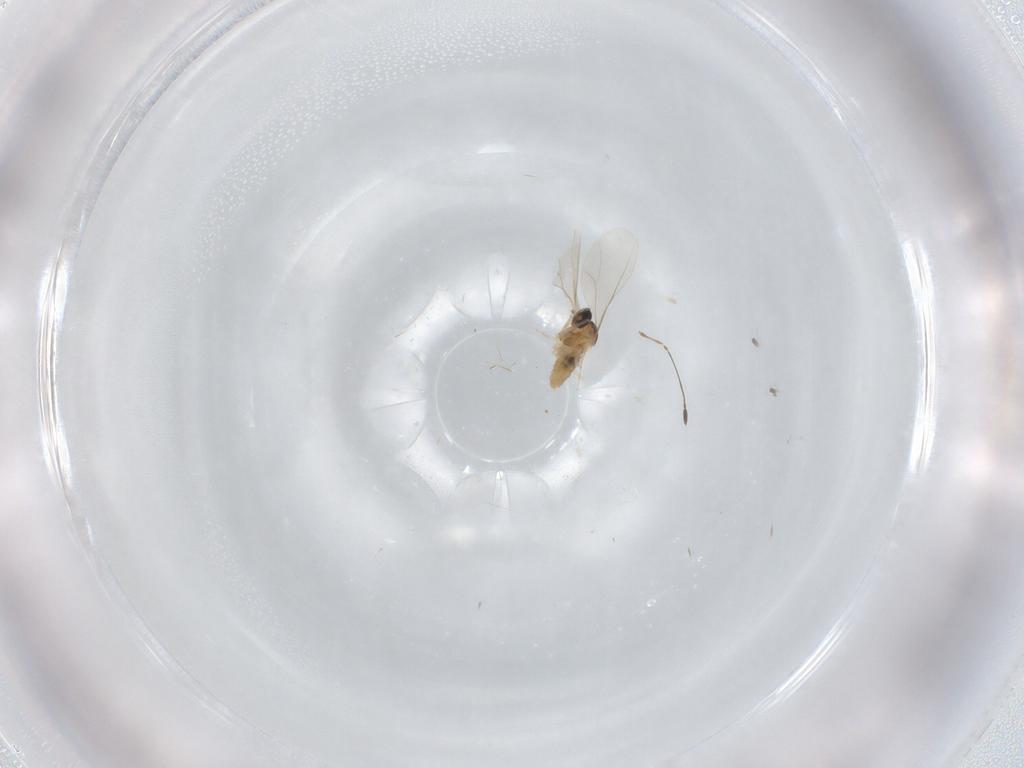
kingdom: Animalia
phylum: Arthropoda
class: Insecta
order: Diptera
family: Cecidomyiidae
